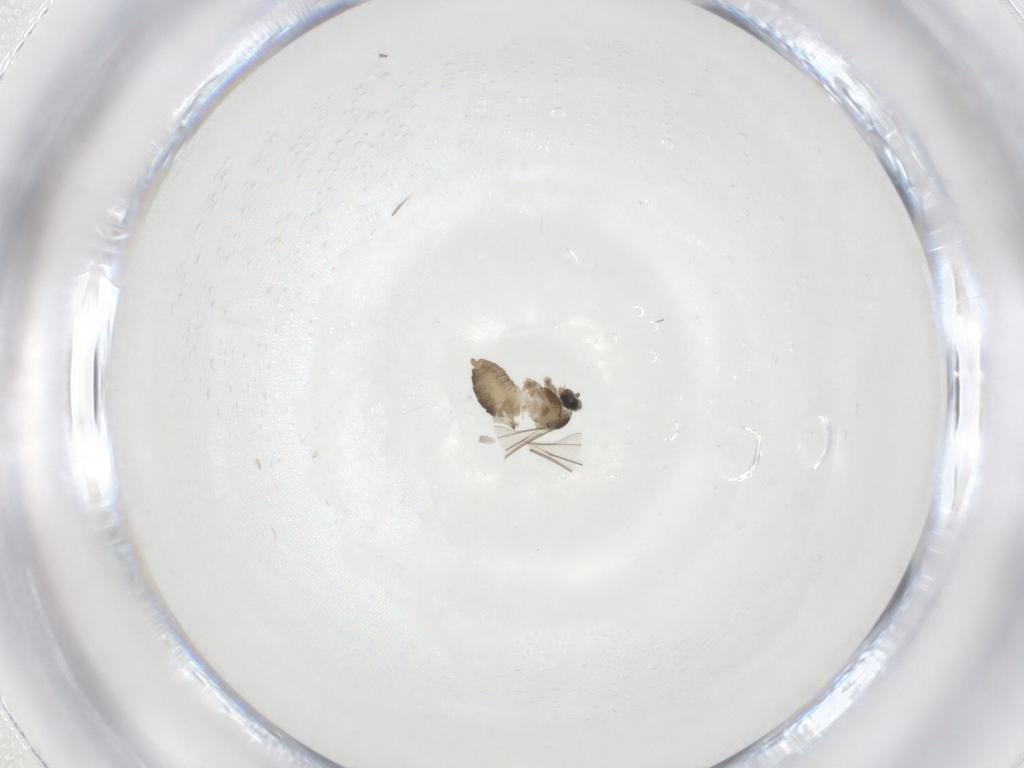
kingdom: Animalia
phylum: Arthropoda
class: Insecta
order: Diptera
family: Cecidomyiidae
